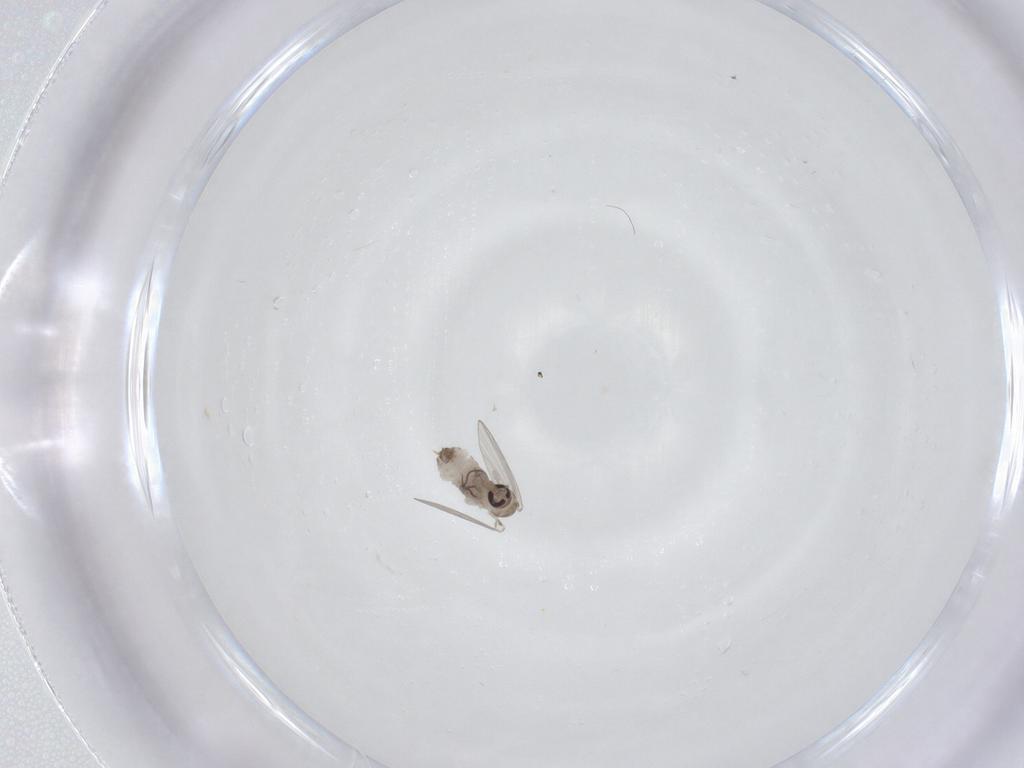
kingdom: Animalia
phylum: Arthropoda
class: Insecta
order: Diptera
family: Psychodidae
